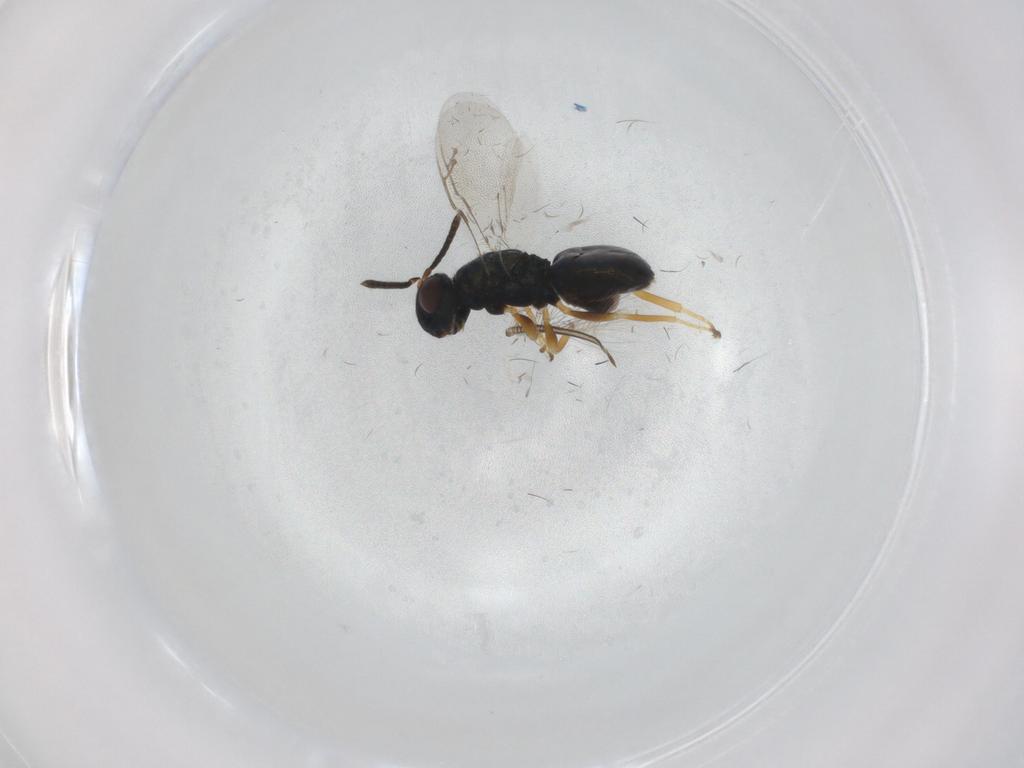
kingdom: Animalia
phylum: Arthropoda
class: Insecta
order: Hymenoptera
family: Pteromalidae
